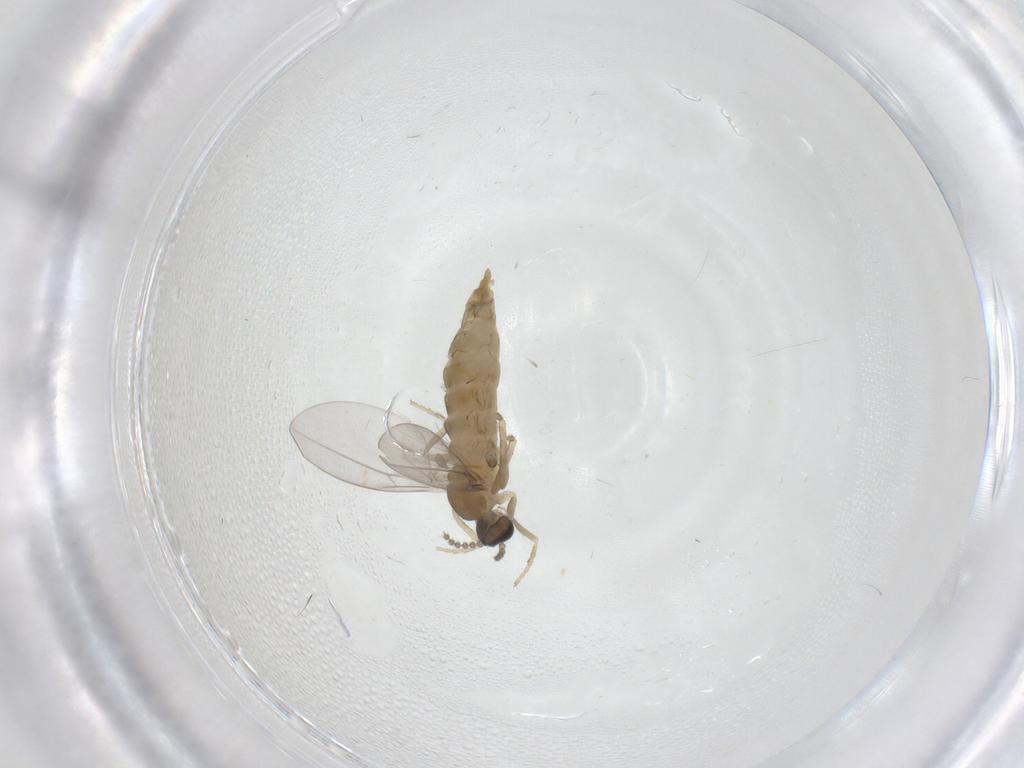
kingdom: Animalia
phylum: Arthropoda
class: Insecta
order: Diptera
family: Cecidomyiidae
